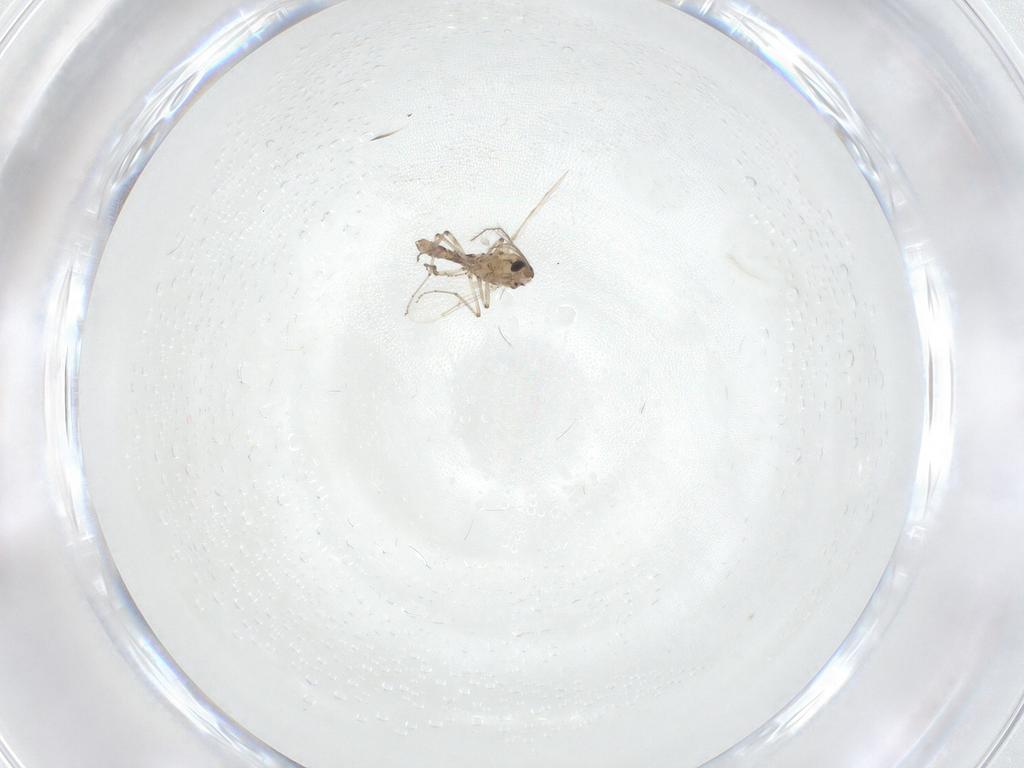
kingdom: Animalia
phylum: Arthropoda
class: Insecta
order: Diptera
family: Ceratopogonidae
